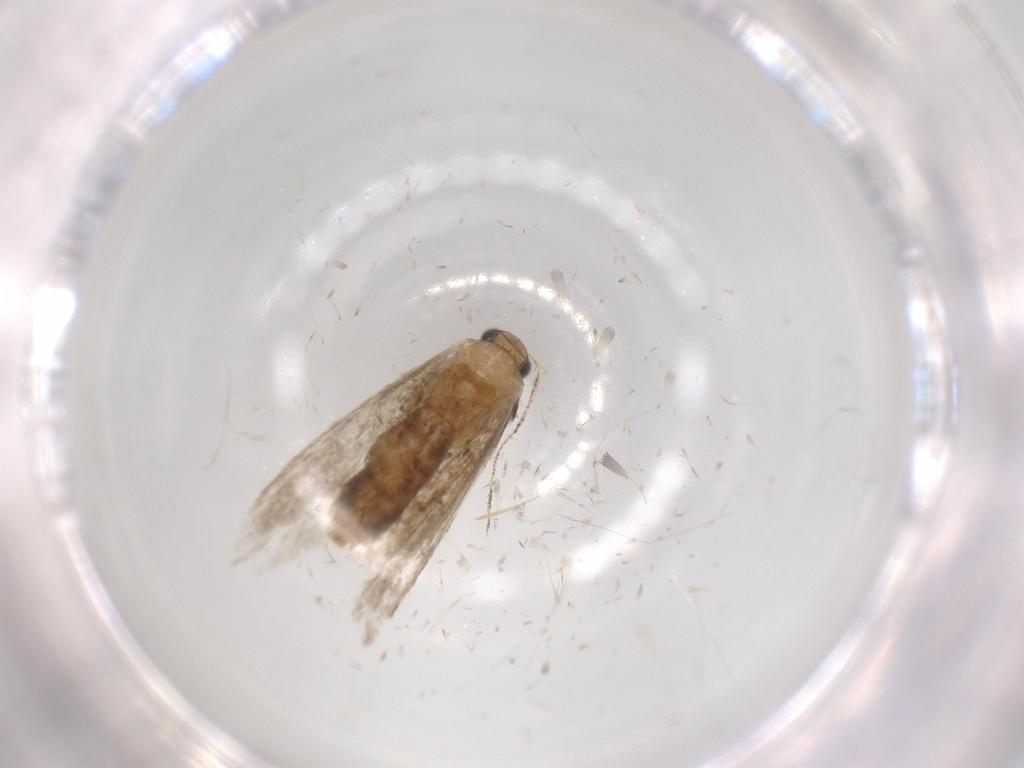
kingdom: Animalia
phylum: Arthropoda
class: Insecta
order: Lepidoptera
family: Tineidae
